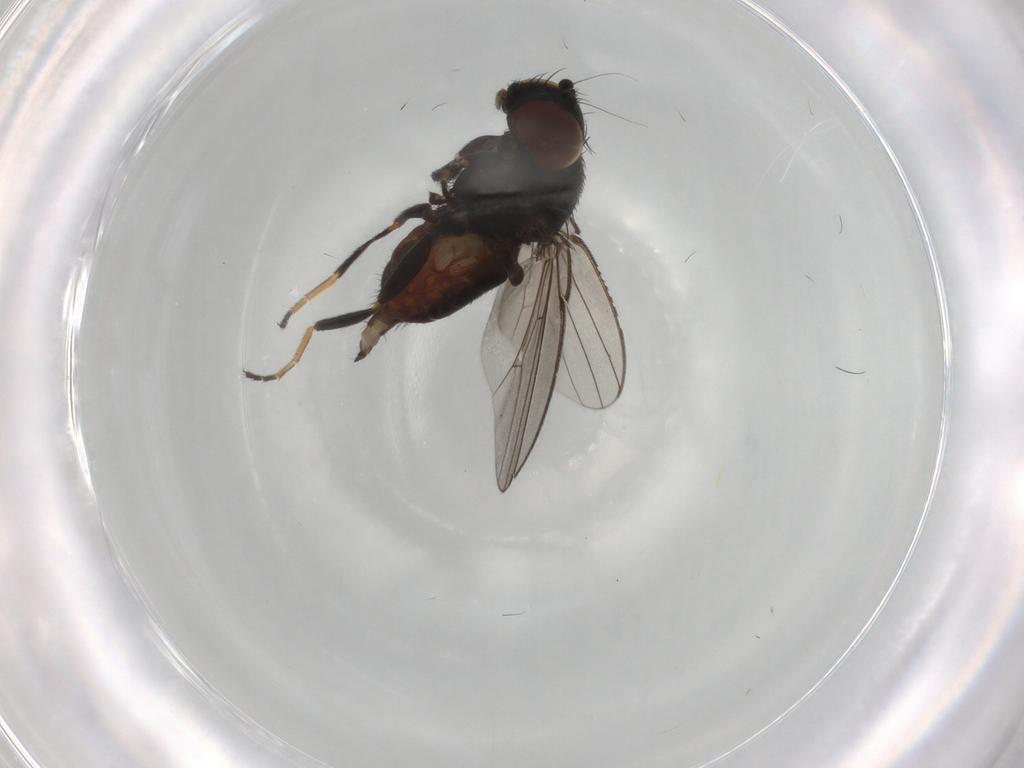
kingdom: Animalia
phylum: Arthropoda
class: Insecta
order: Diptera
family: Milichiidae
